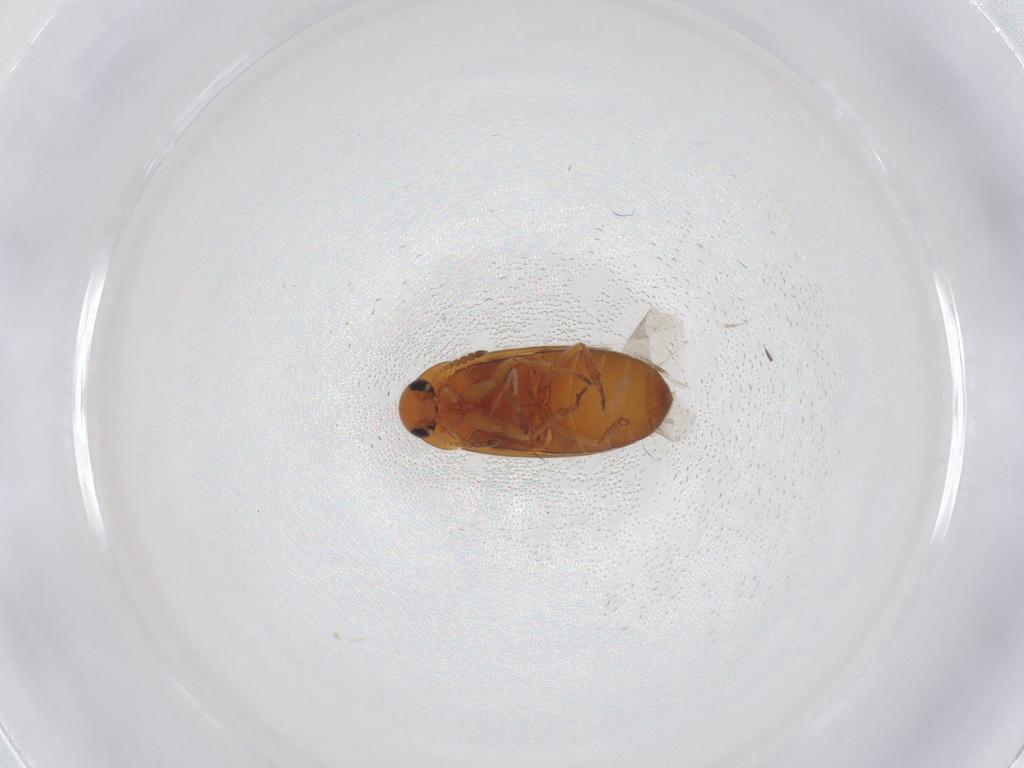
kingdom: Animalia
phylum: Arthropoda
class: Insecta
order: Coleoptera
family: Scraptiidae
